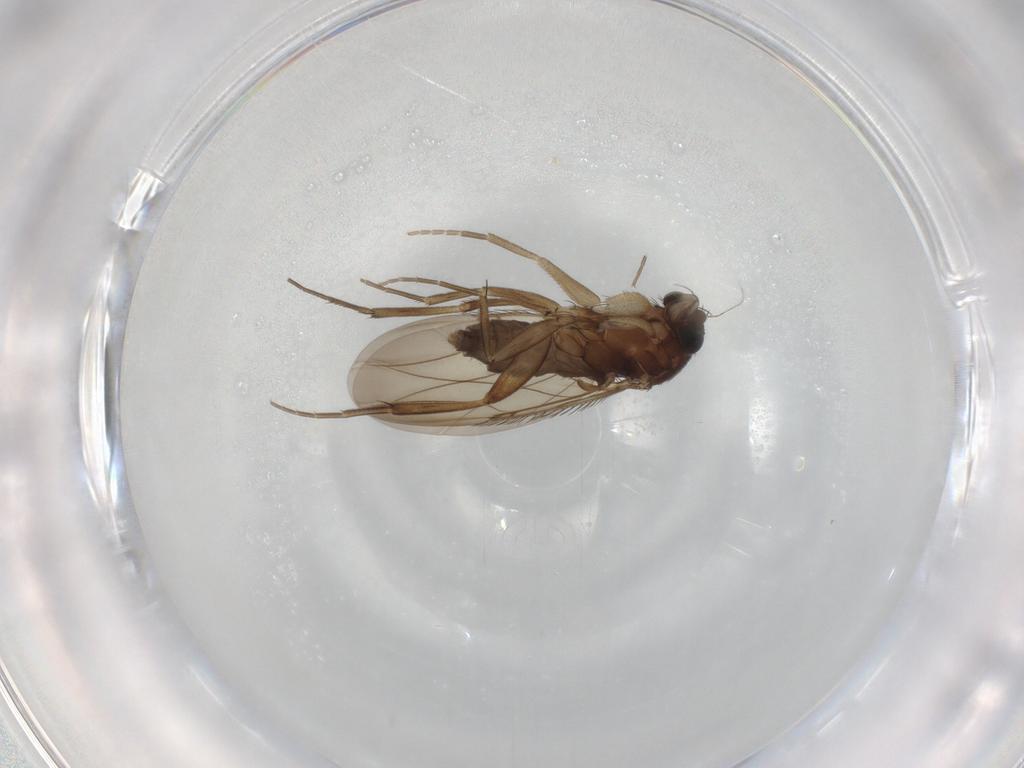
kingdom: Animalia
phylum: Arthropoda
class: Insecta
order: Diptera
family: Phoridae
